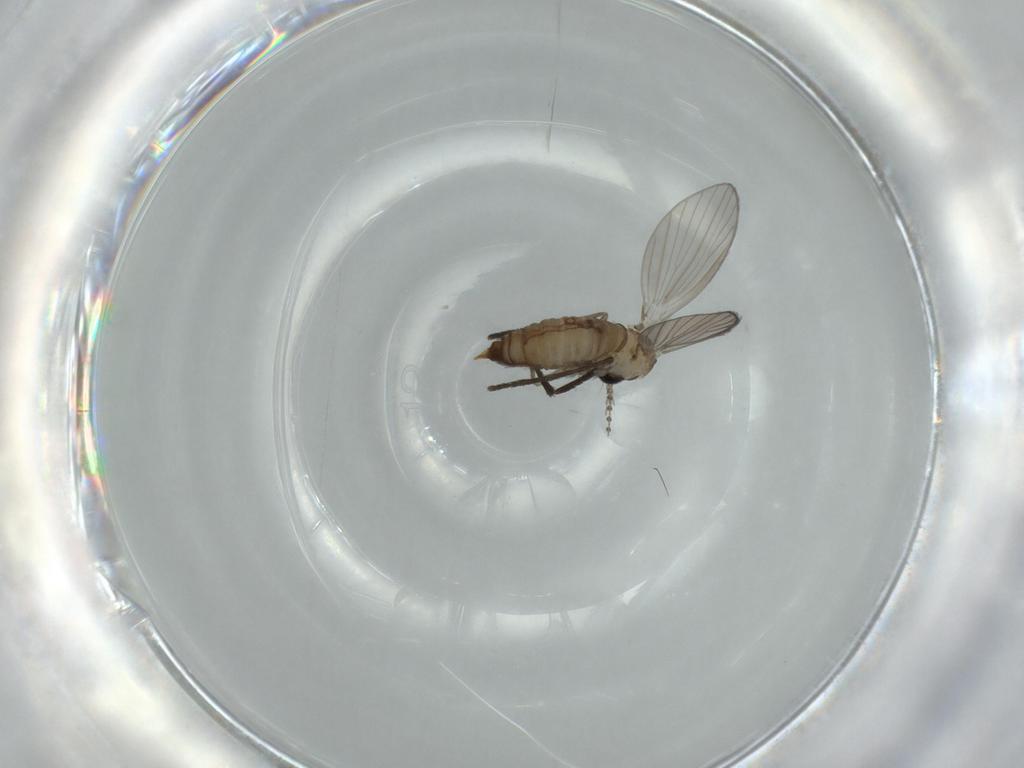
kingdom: Animalia
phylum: Arthropoda
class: Insecta
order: Diptera
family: Psychodidae
